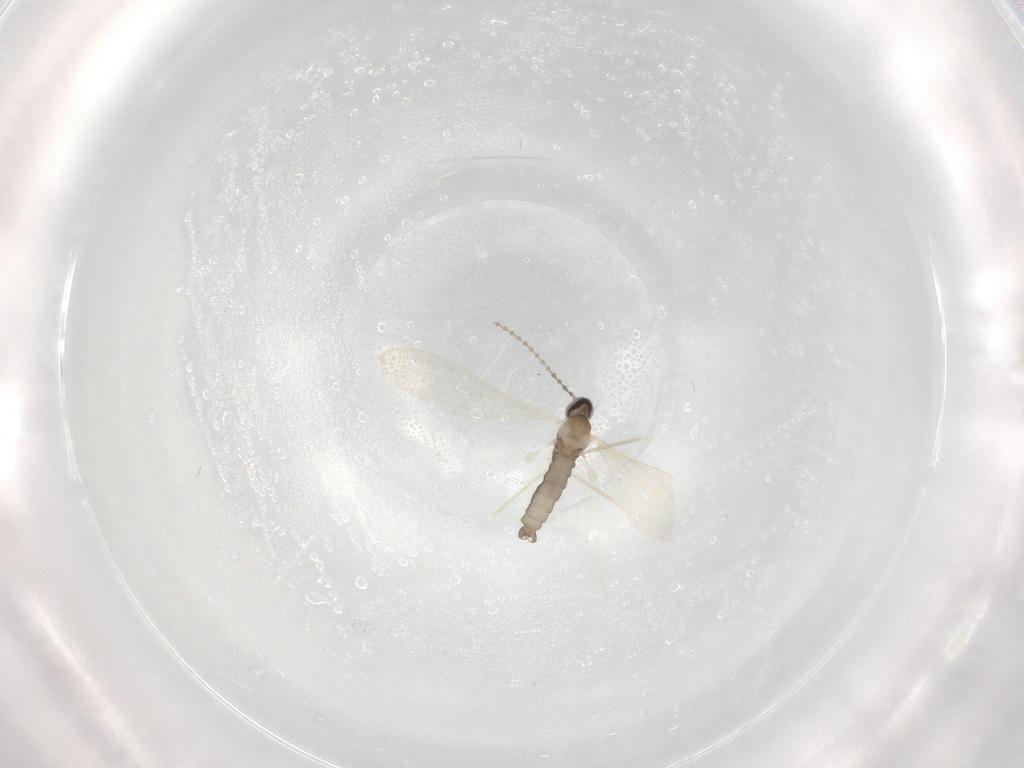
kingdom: Animalia
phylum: Arthropoda
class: Insecta
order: Diptera
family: Cecidomyiidae
